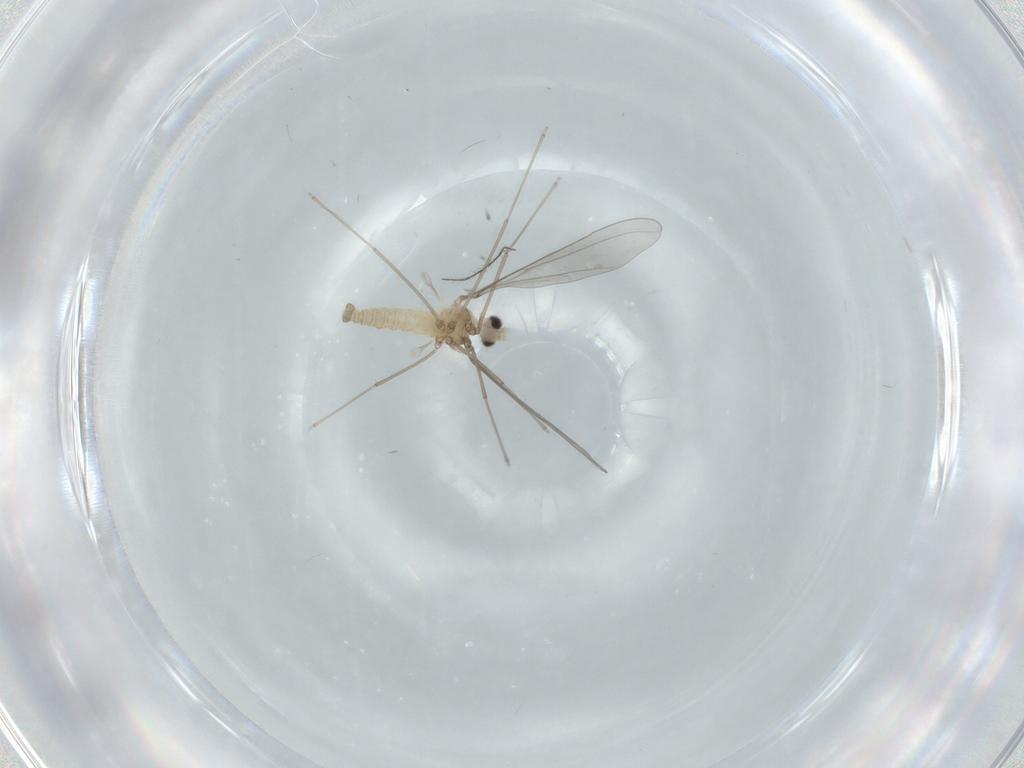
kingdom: Animalia
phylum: Arthropoda
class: Insecta
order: Diptera
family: Cecidomyiidae
